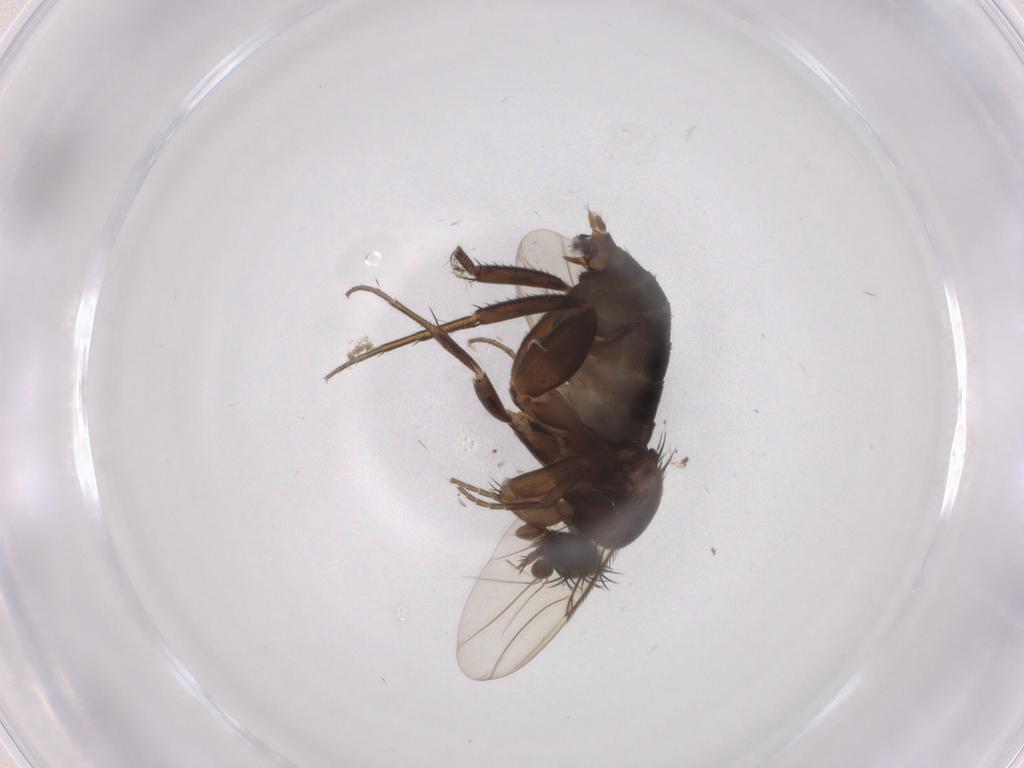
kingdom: Animalia
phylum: Arthropoda
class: Insecta
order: Diptera
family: Phoridae
